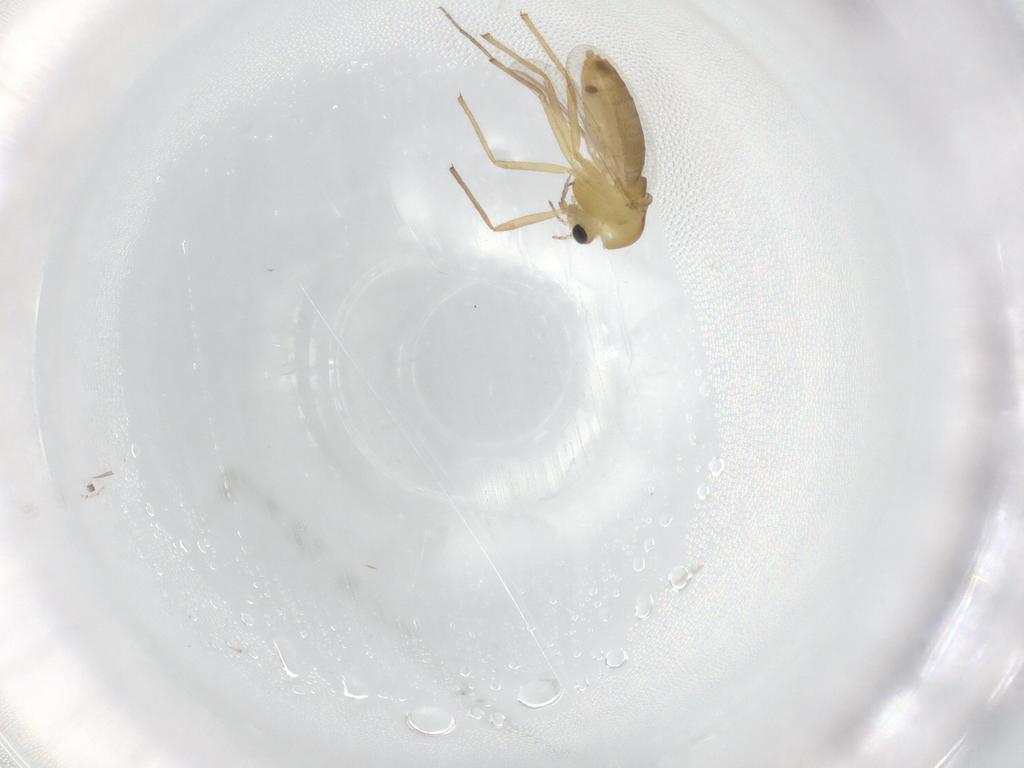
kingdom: Animalia
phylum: Arthropoda
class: Insecta
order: Diptera
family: Chironomidae
